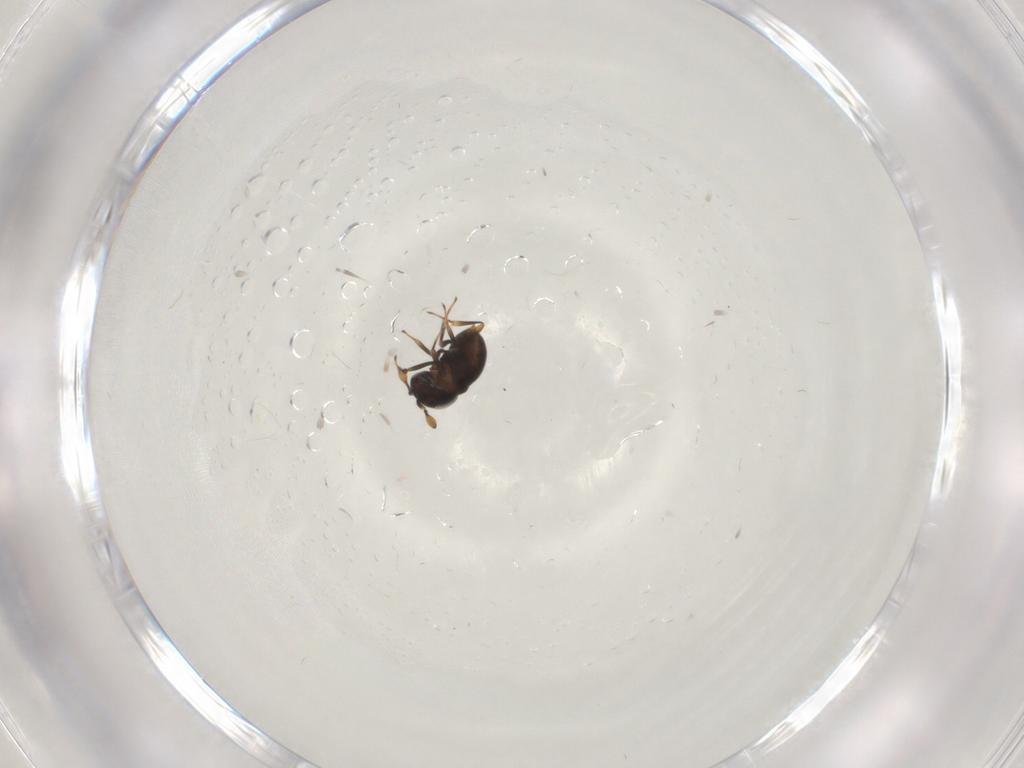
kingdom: Animalia
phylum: Arthropoda
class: Insecta
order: Hymenoptera
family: Scelionidae
